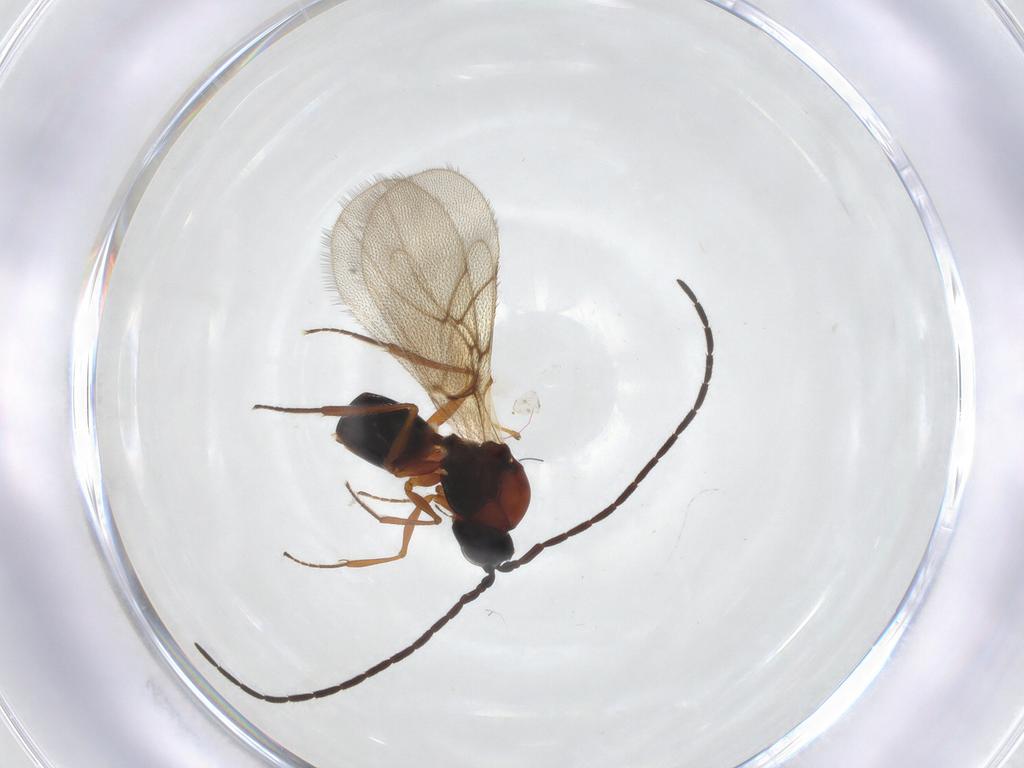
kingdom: Animalia
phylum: Arthropoda
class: Insecta
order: Hymenoptera
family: Figitidae
